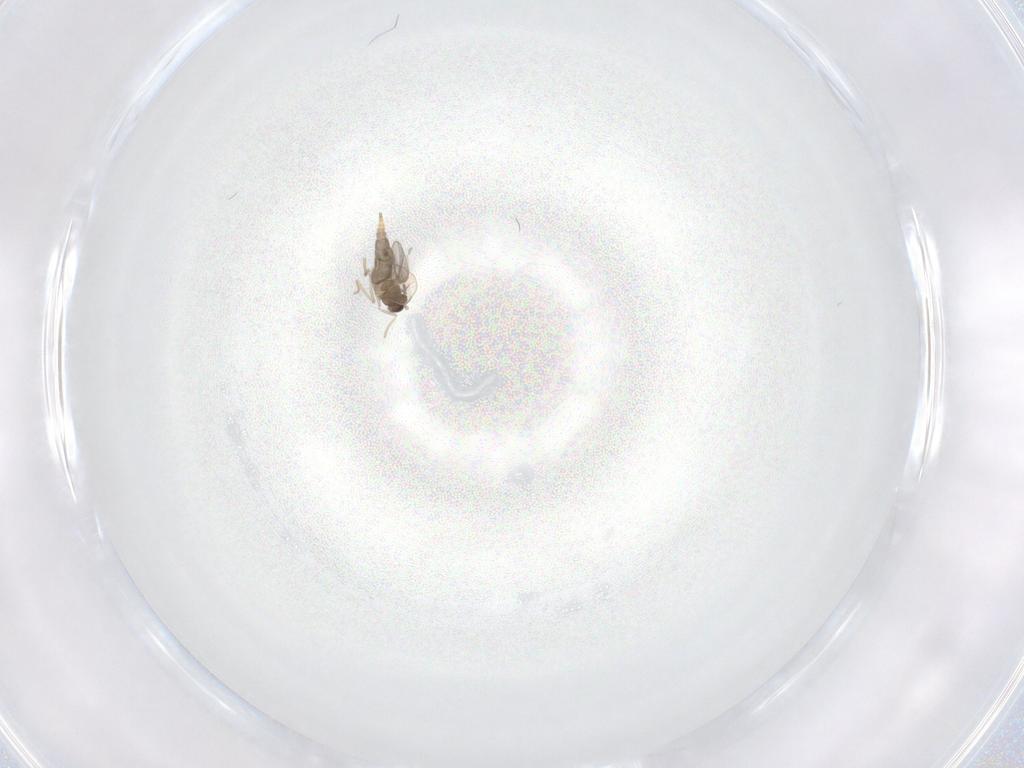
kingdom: Animalia
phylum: Arthropoda
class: Insecta
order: Diptera
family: Cecidomyiidae
